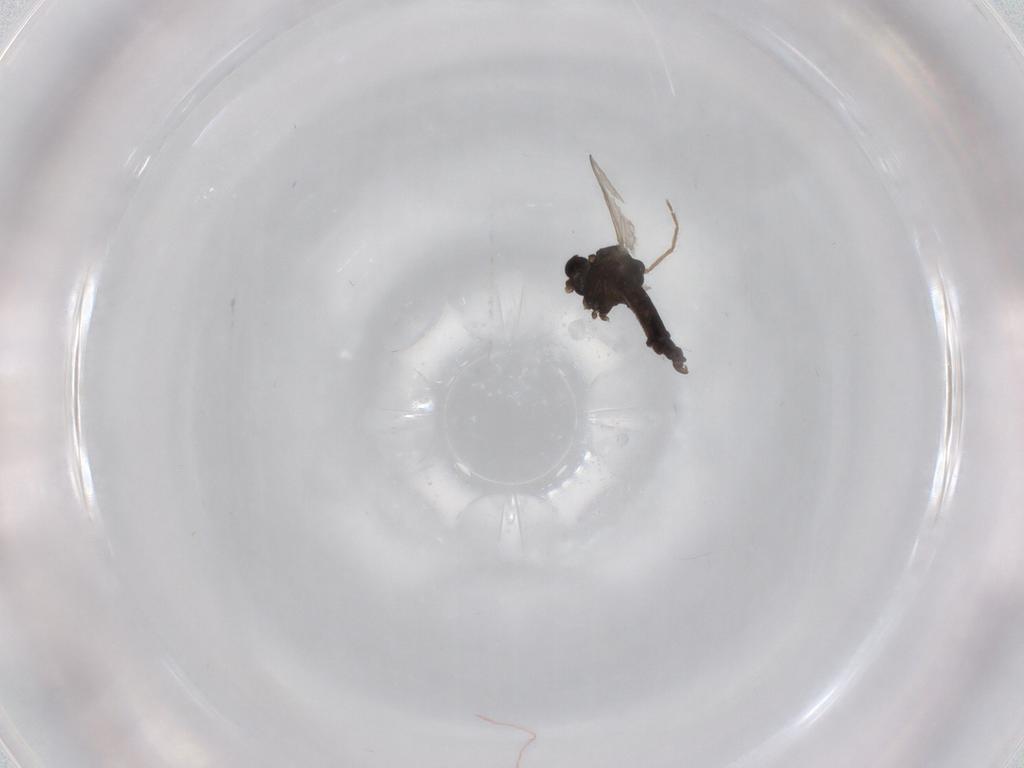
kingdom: Animalia
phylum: Arthropoda
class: Insecta
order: Diptera
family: Chironomidae
